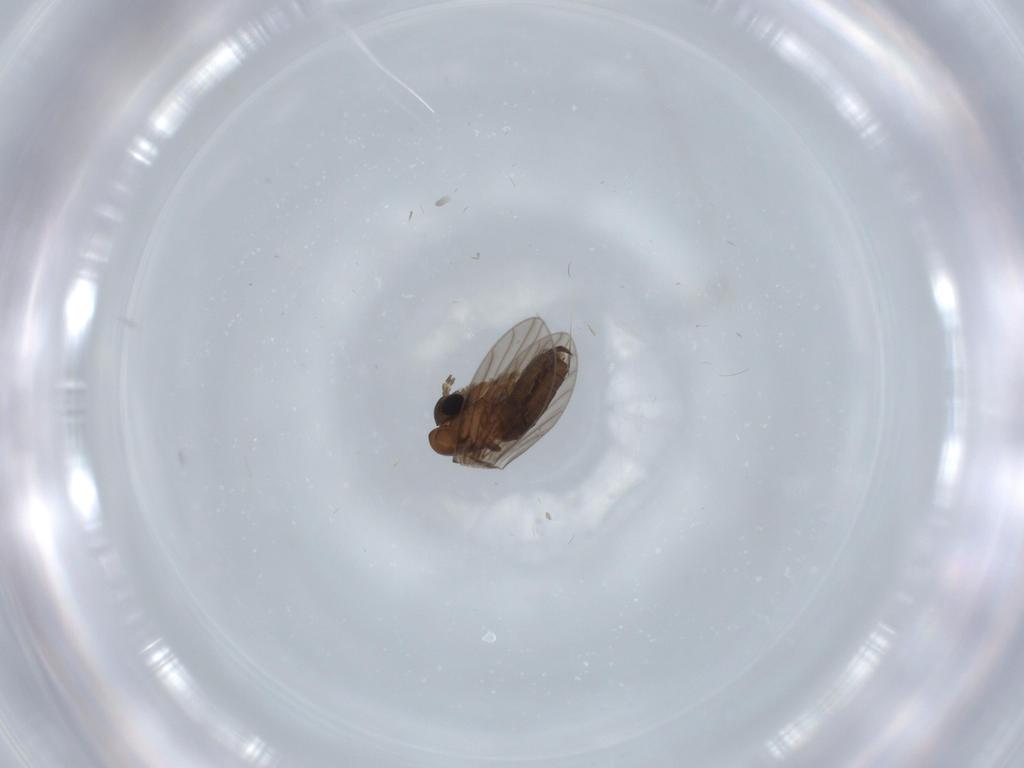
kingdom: Animalia
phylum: Arthropoda
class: Insecta
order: Diptera
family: Psychodidae
